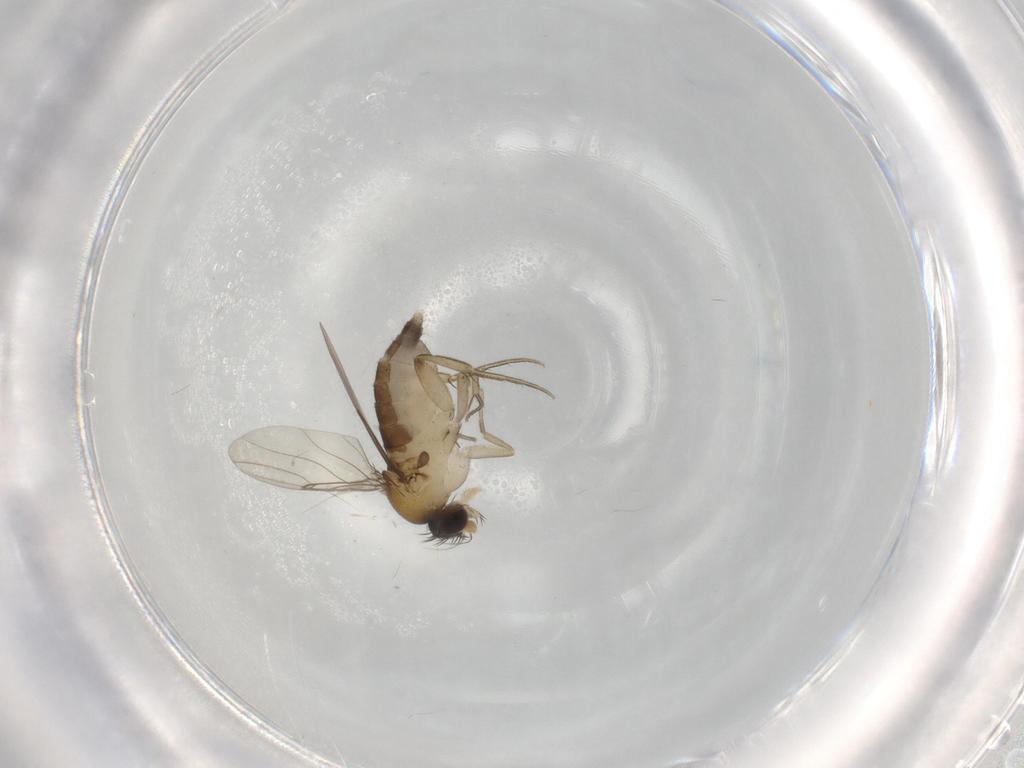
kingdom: Animalia
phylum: Arthropoda
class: Insecta
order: Diptera
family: Phoridae
